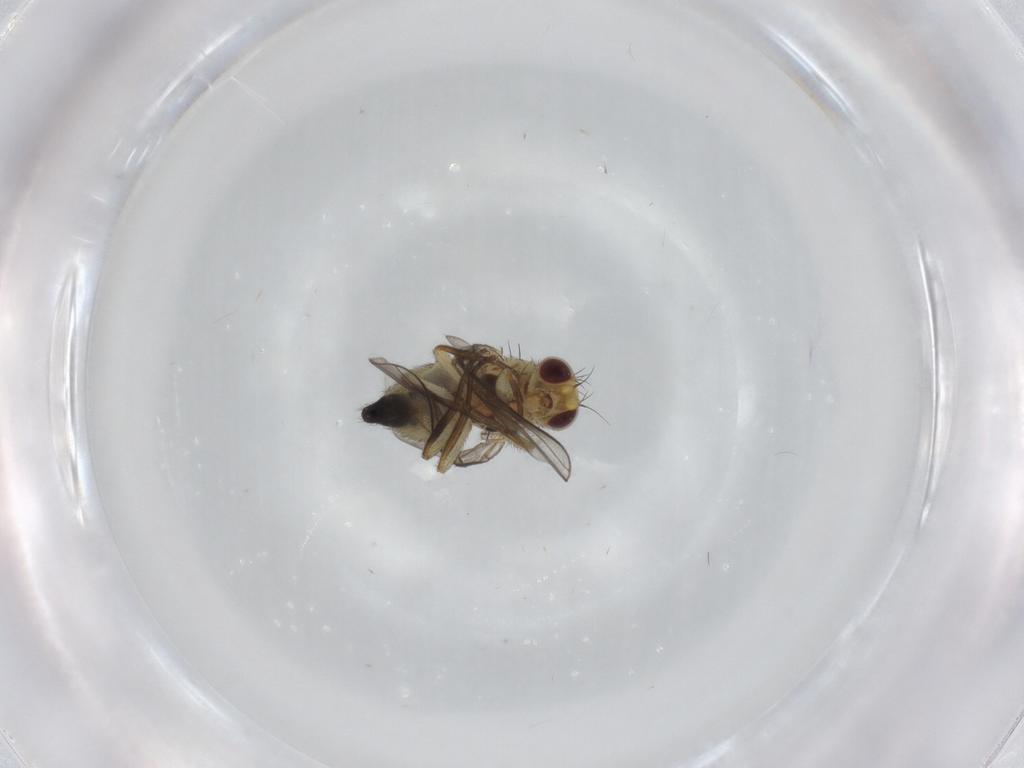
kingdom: Animalia
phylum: Arthropoda
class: Insecta
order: Diptera
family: Agromyzidae
